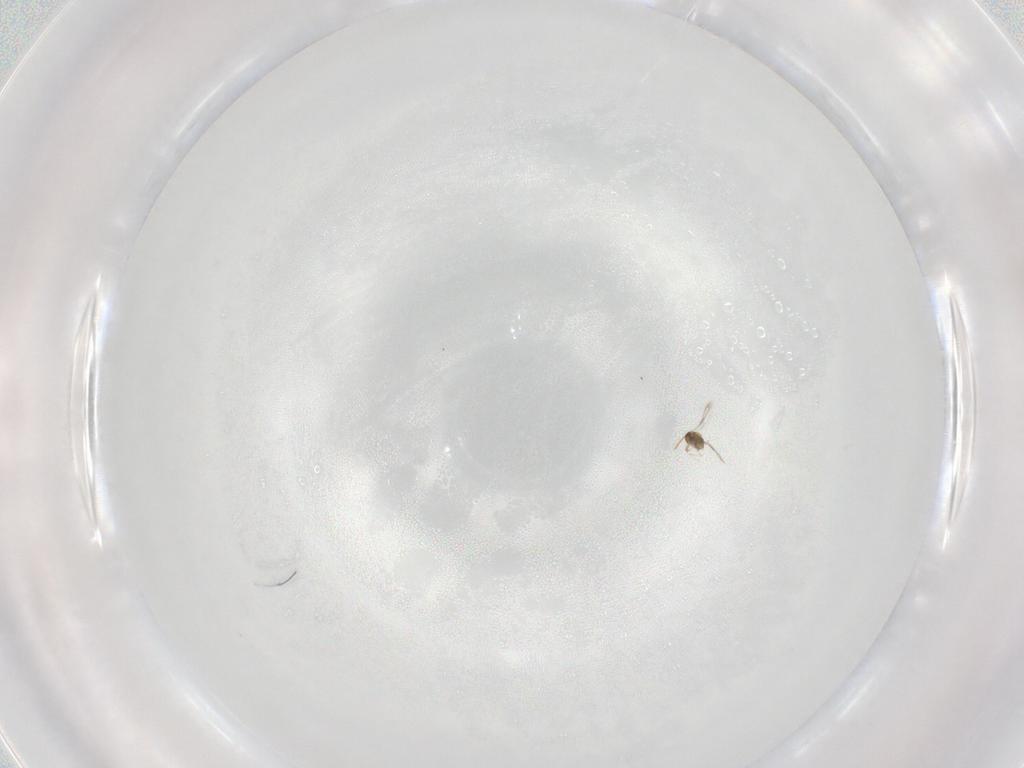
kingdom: Animalia
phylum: Arthropoda
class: Insecta
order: Hymenoptera
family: Aphelinidae
